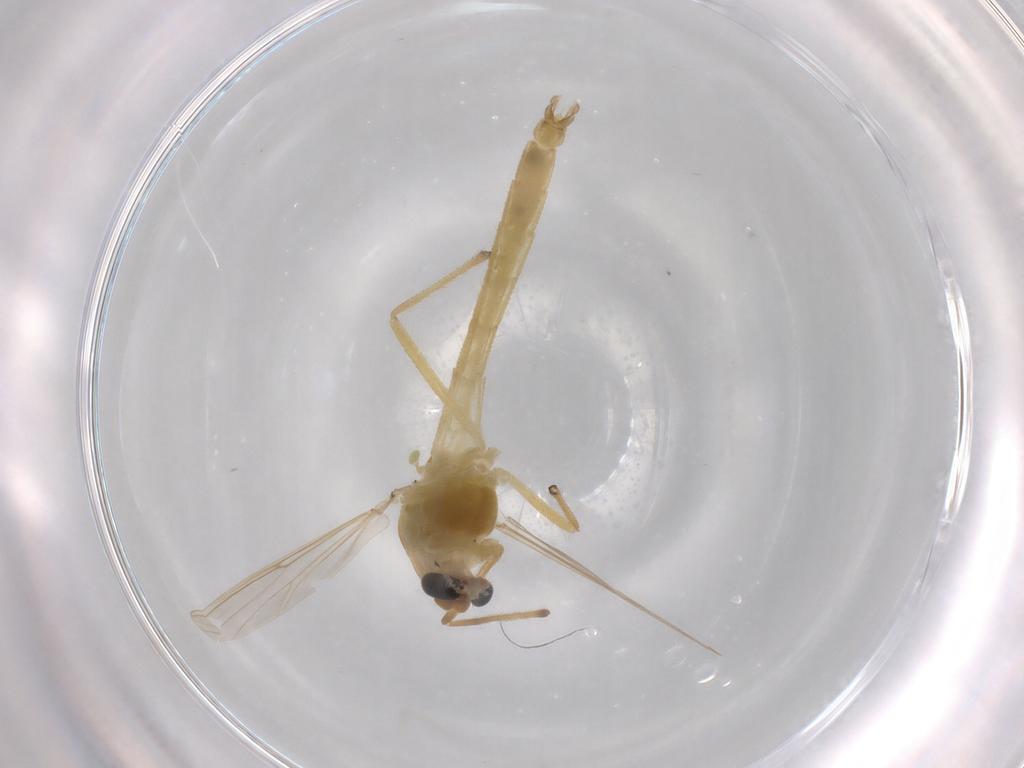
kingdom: Animalia
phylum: Arthropoda
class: Insecta
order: Diptera
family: Chironomidae
